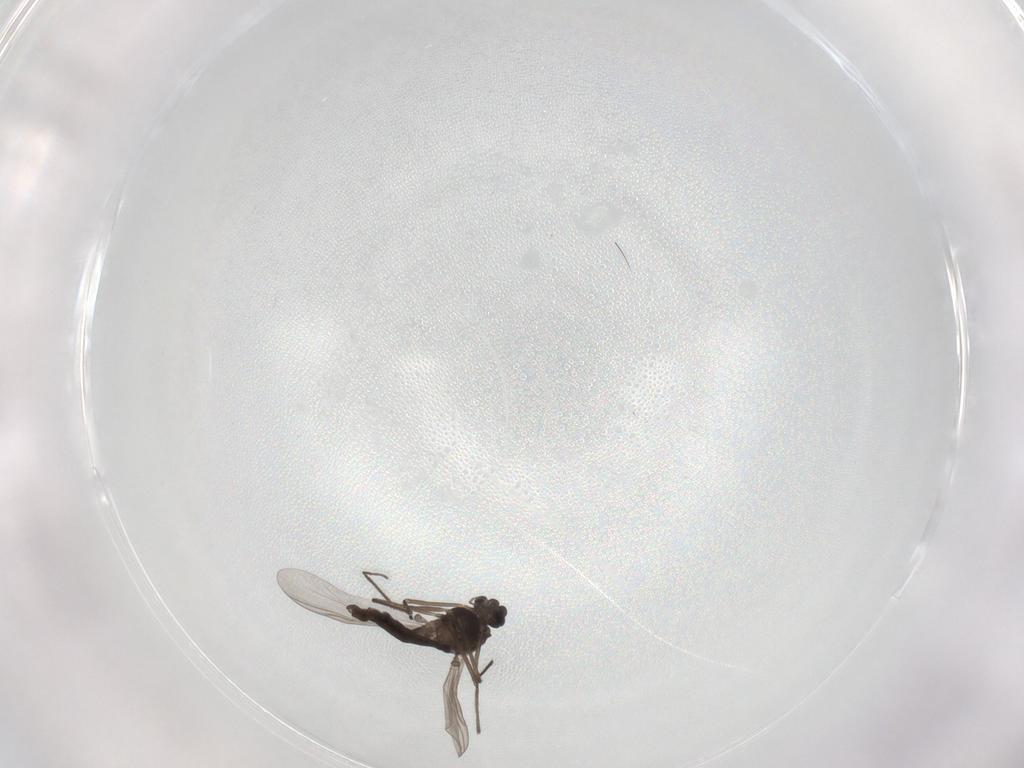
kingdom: Animalia
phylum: Arthropoda
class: Insecta
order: Diptera
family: Chironomidae
